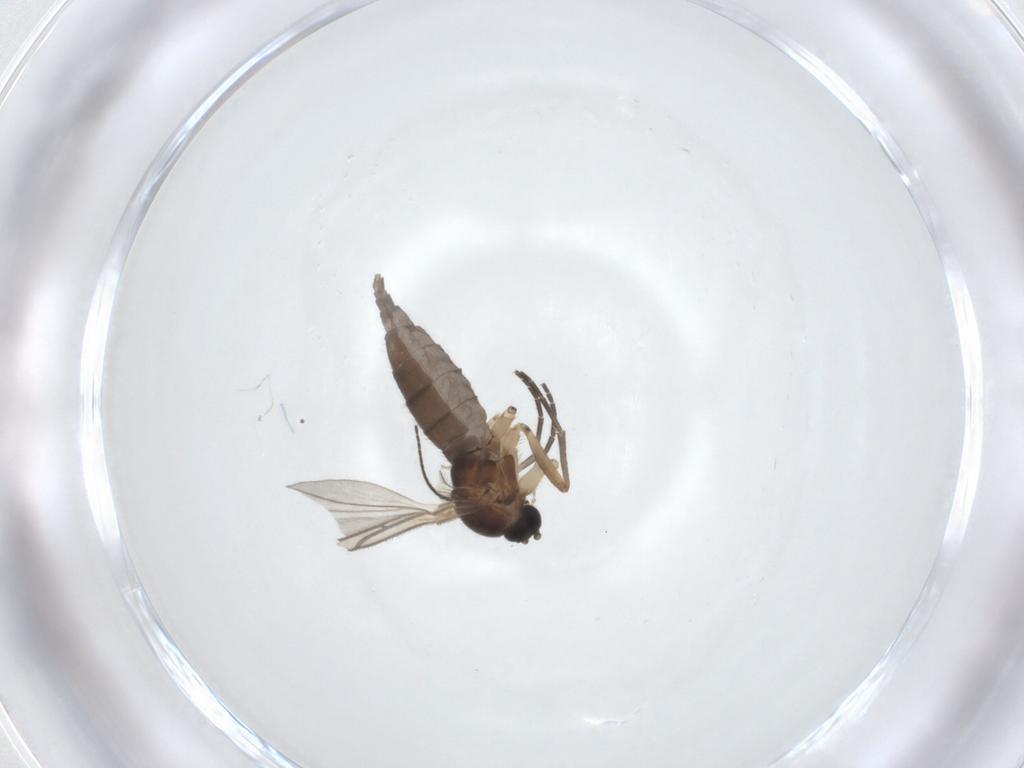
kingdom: Animalia
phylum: Arthropoda
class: Insecta
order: Diptera
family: Sciaridae
